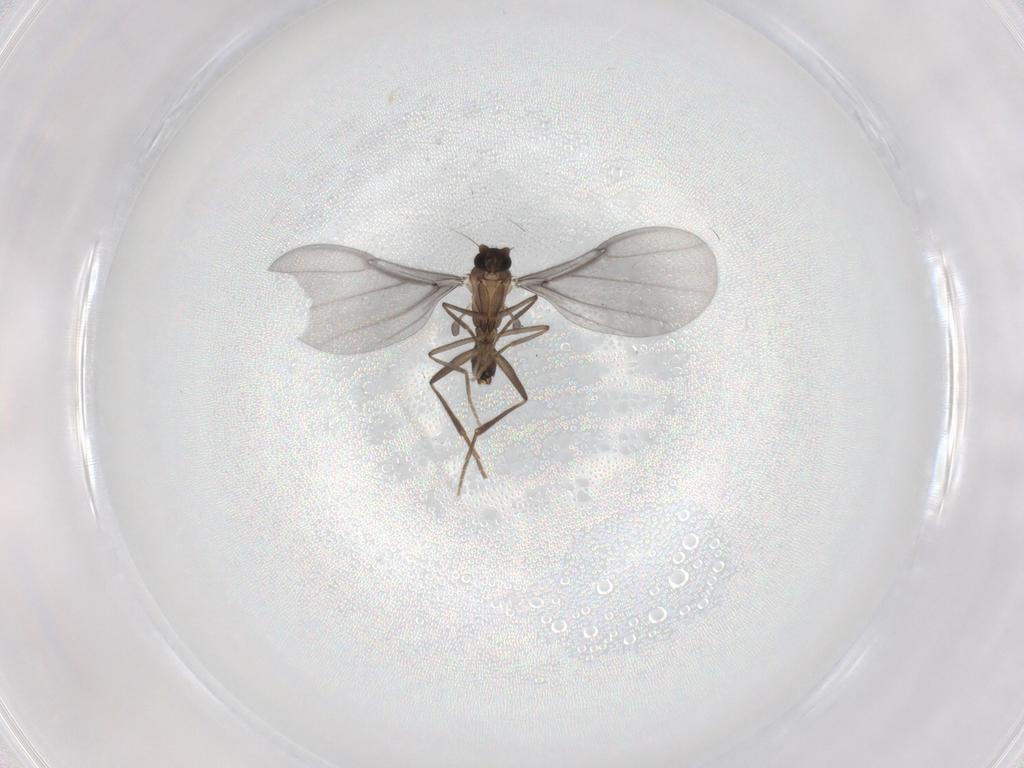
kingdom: Animalia
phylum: Arthropoda
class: Insecta
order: Diptera
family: Phoridae
